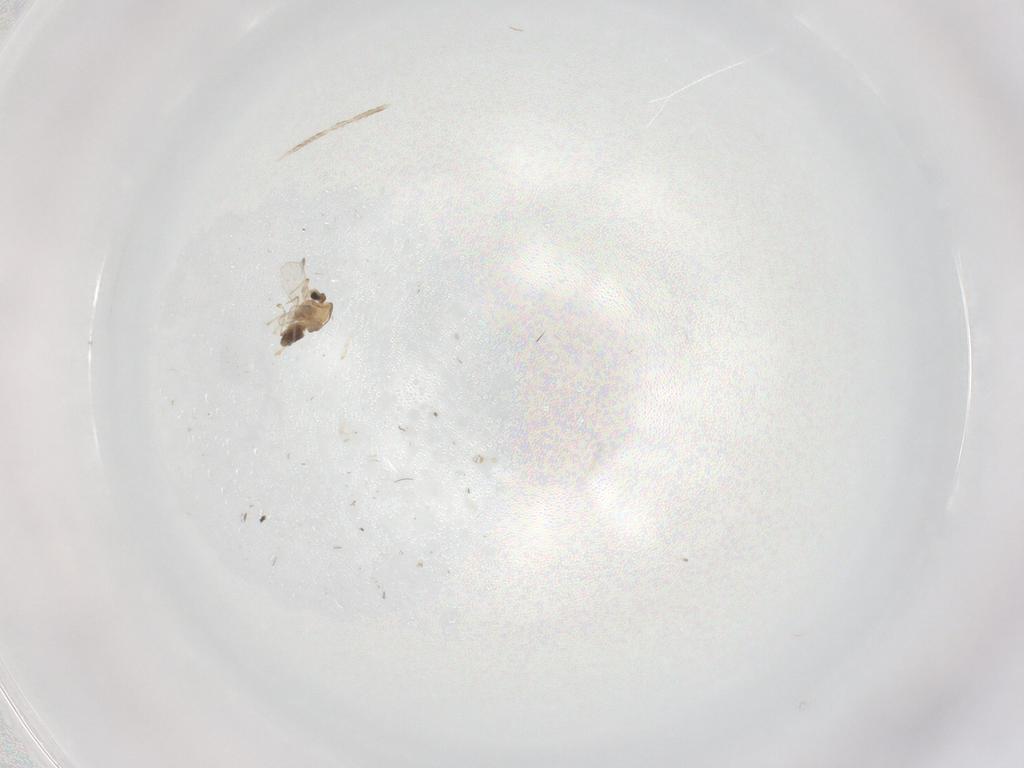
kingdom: Animalia
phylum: Arthropoda
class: Insecta
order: Diptera
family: Cecidomyiidae
